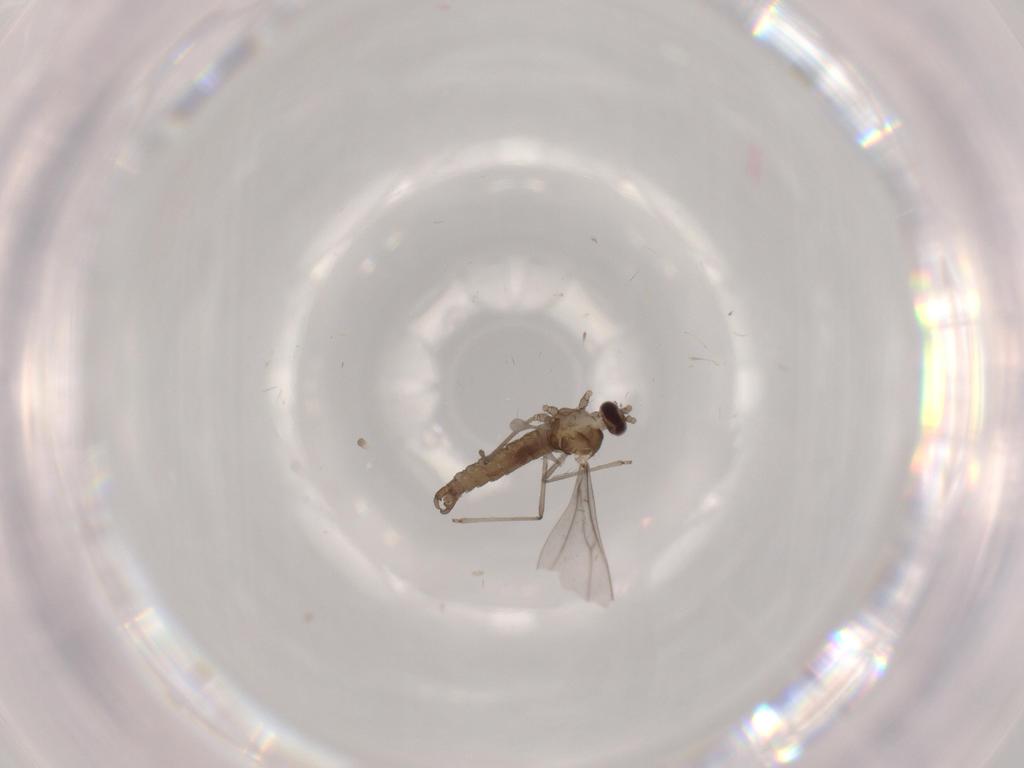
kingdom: Animalia
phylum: Arthropoda
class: Insecta
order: Diptera
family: Cecidomyiidae
